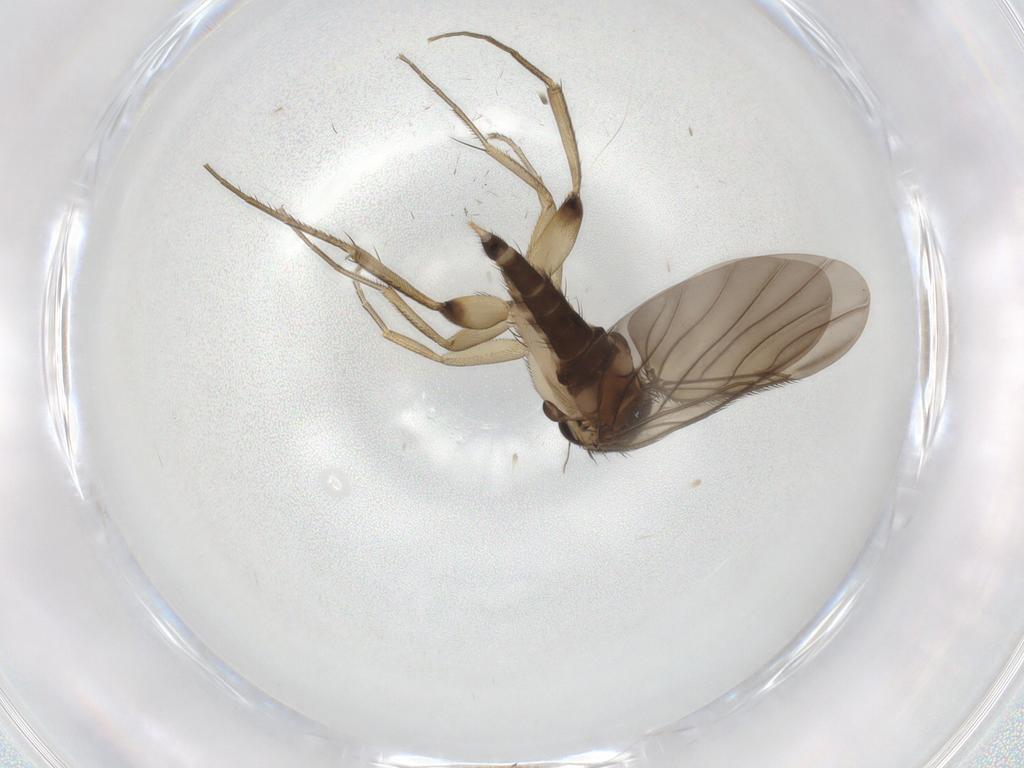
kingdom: Animalia
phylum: Arthropoda
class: Insecta
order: Diptera
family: Phoridae
